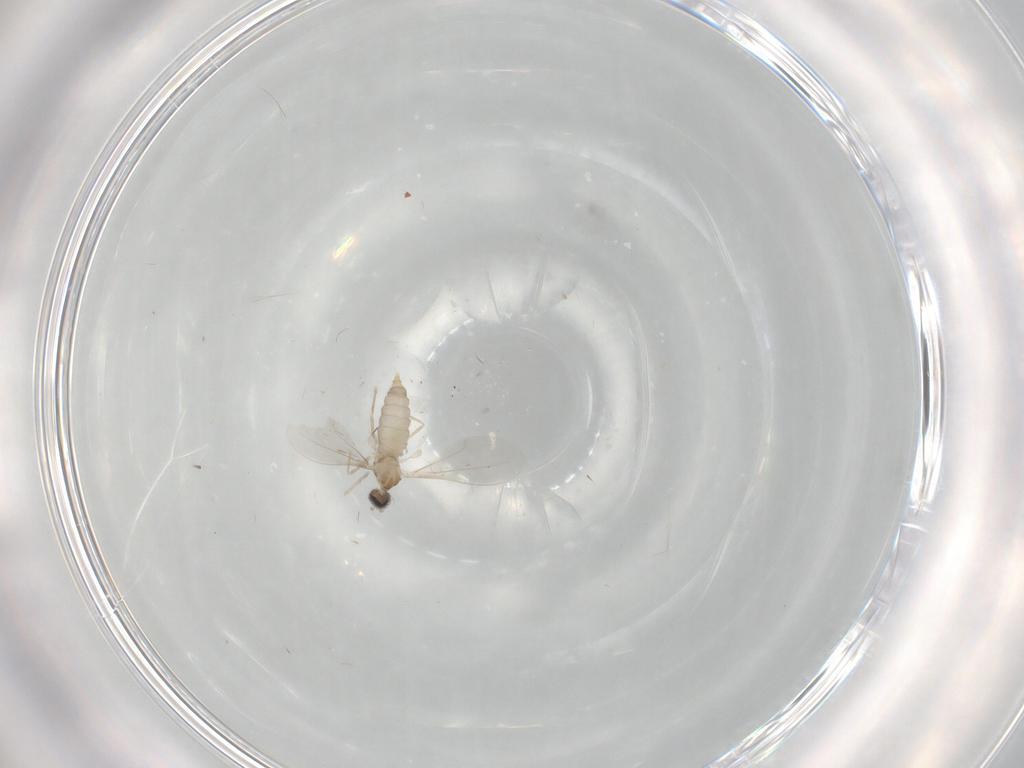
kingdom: Animalia
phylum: Arthropoda
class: Insecta
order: Diptera
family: Cecidomyiidae
